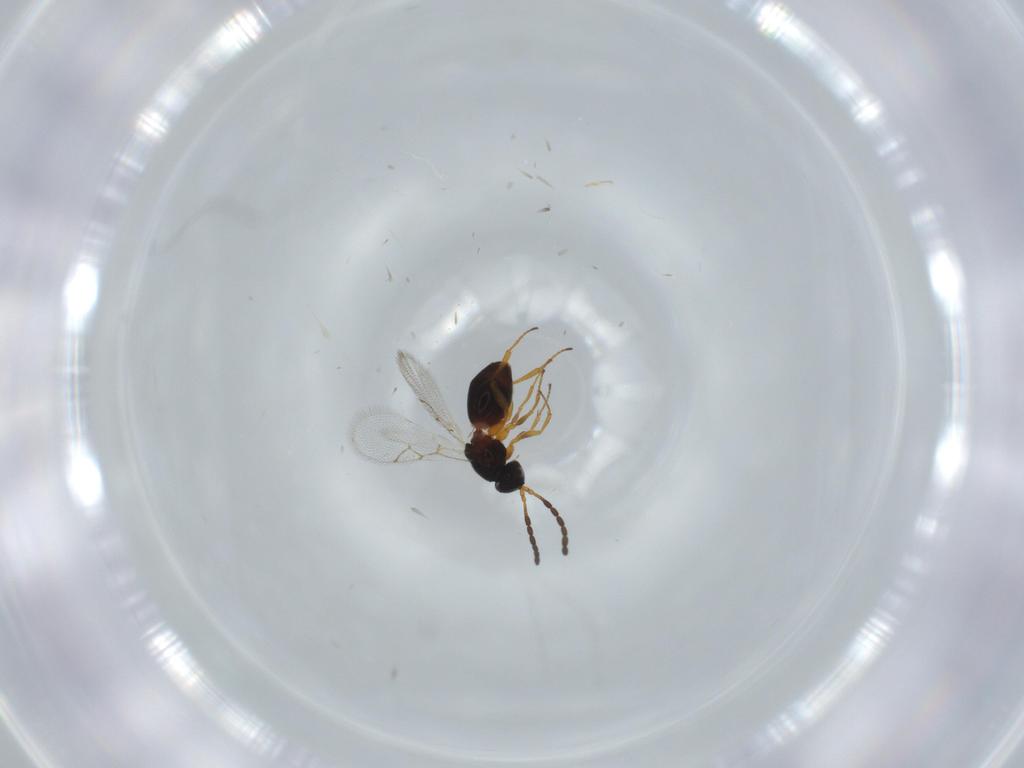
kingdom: Animalia
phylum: Arthropoda
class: Insecta
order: Hymenoptera
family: Figitidae
